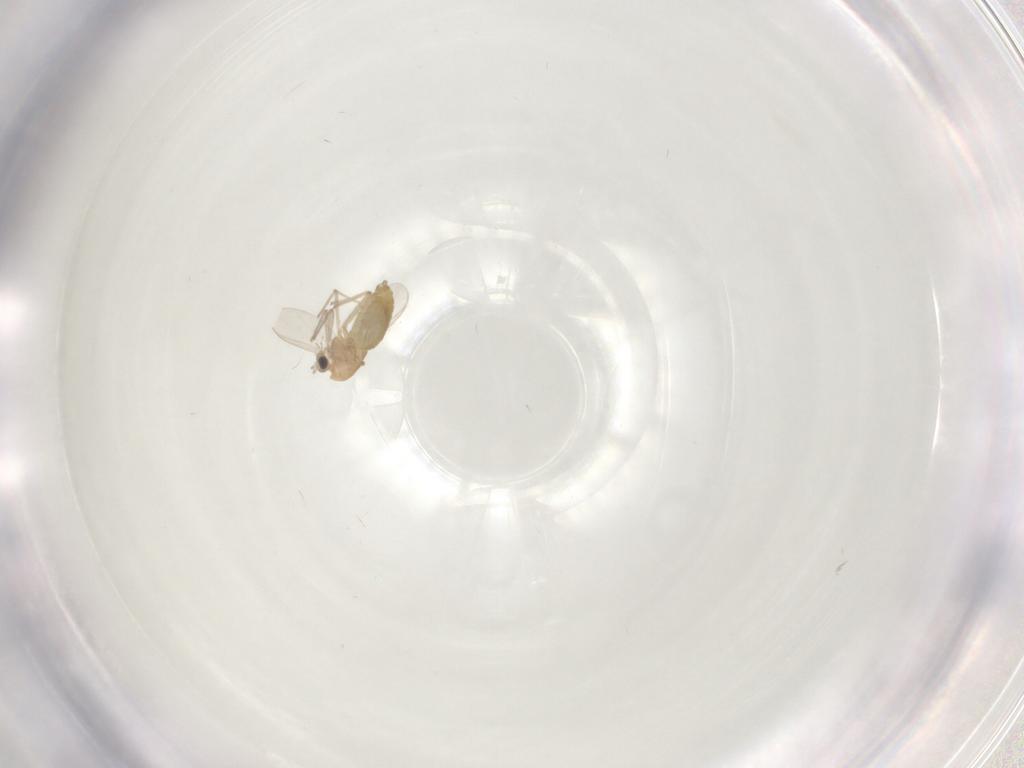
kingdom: Animalia
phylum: Arthropoda
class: Insecta
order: Diptera
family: Chironomidae
